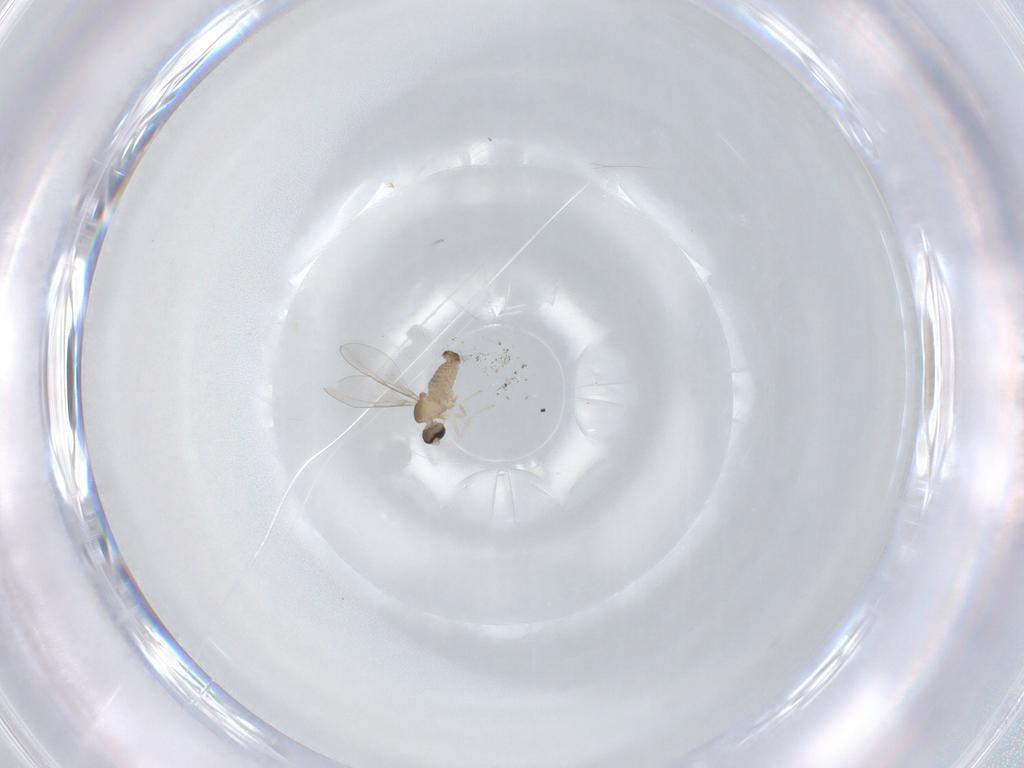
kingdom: Animalia
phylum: Arthropoda
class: Insecta
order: Diptera
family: Cecidomyiidae
